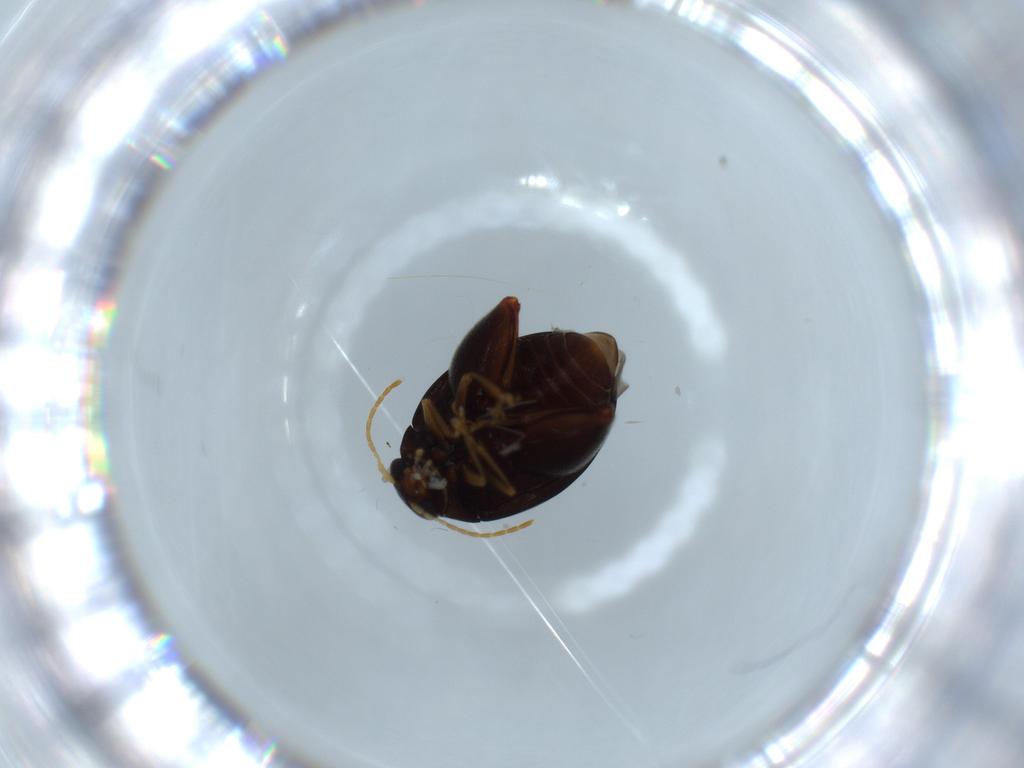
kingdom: Animalia
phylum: Arthropoda
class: Insecta
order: Coleoptera
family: Chrysomelidae
